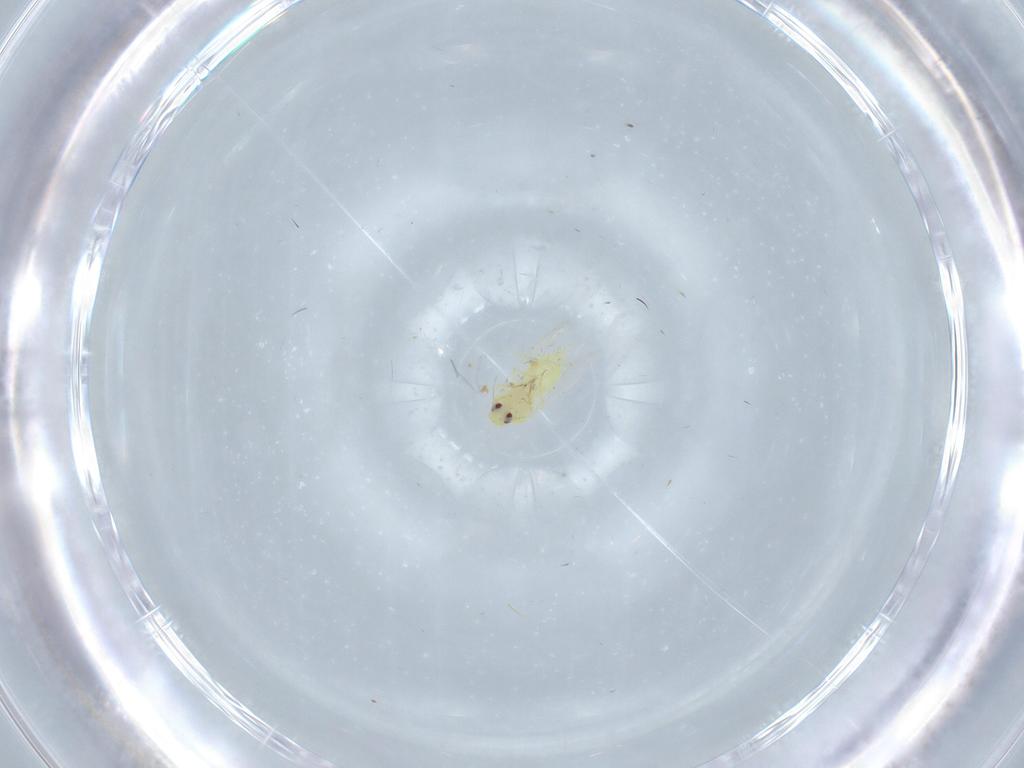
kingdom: Animalia
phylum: Arthropoda
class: Insecta
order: Hemiptera
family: Aleyrodidae
